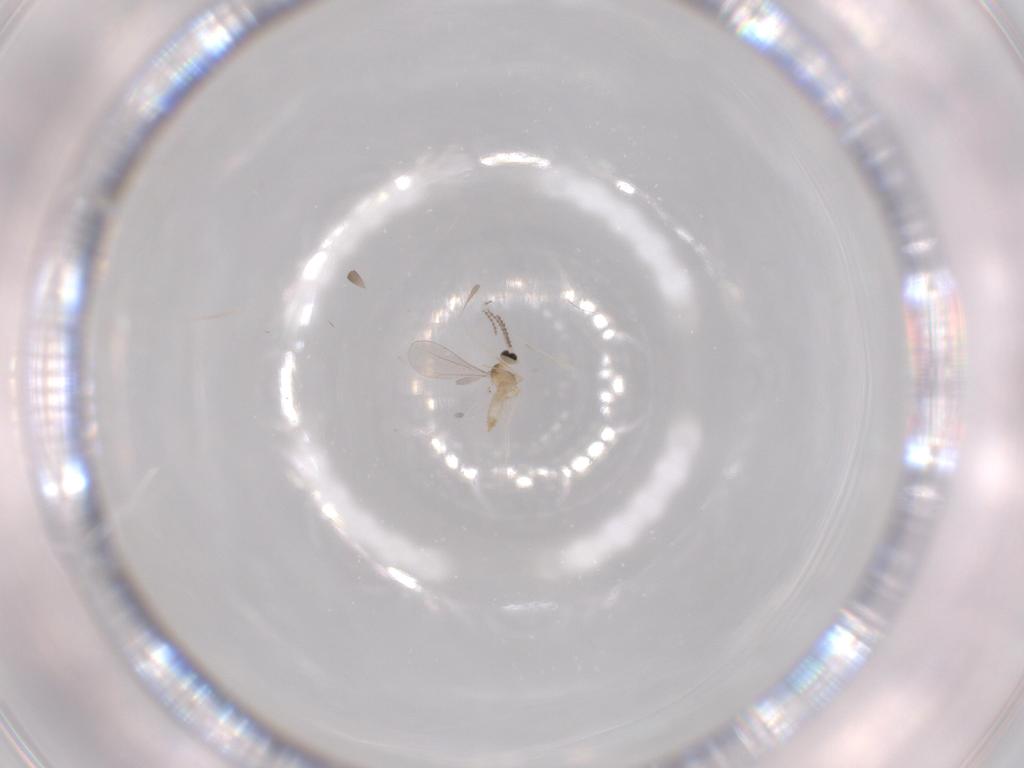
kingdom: Animalia
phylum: Arthropoda
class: Insecta
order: Diptera
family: Cecidomyiidae
